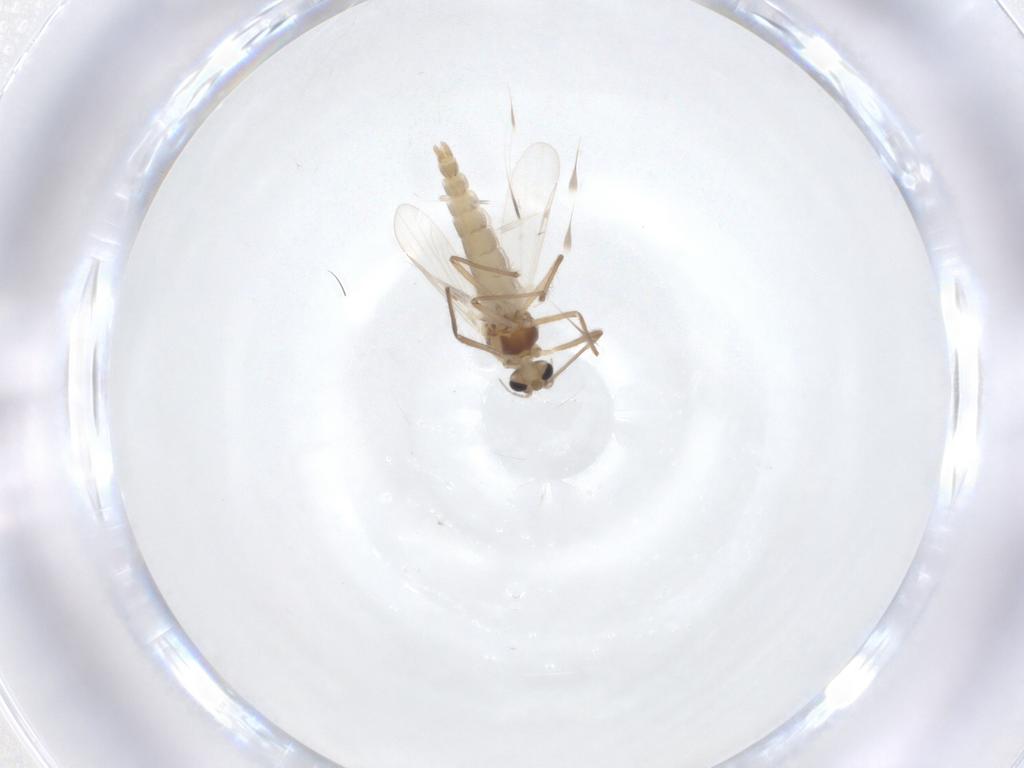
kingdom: Animalia
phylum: Arthropoda
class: Insecta
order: Diptera
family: Chironomidae
